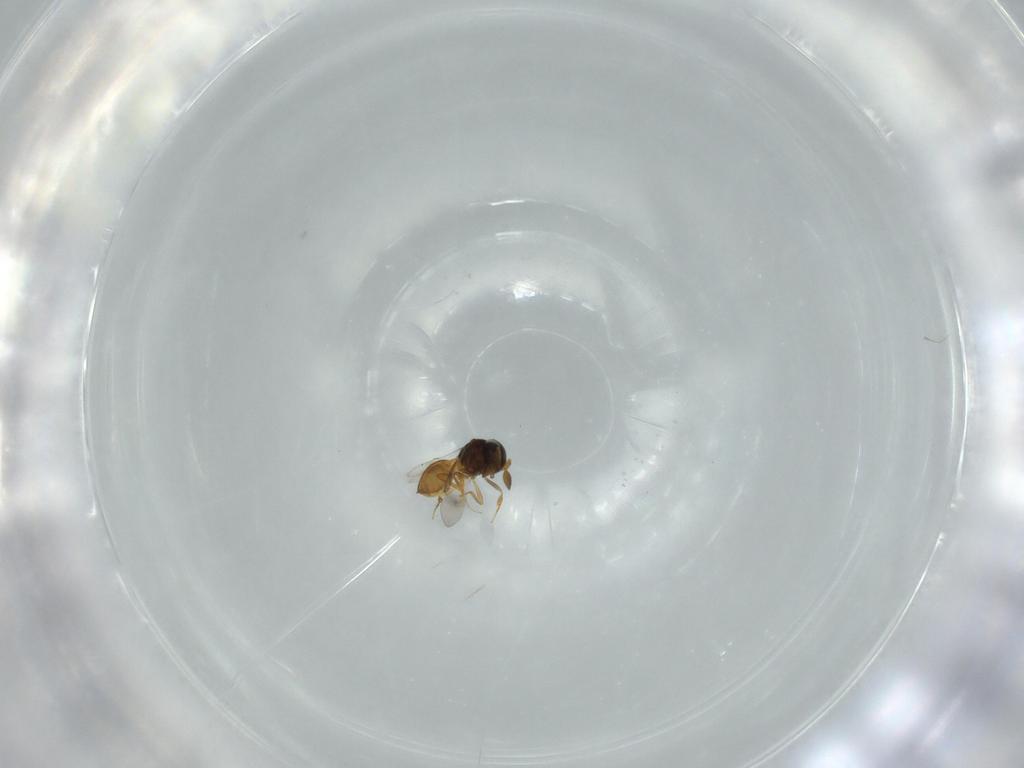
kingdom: Animalia
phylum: Arthropoda
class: Insecta
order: Hymenoptera
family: Scelionidae
